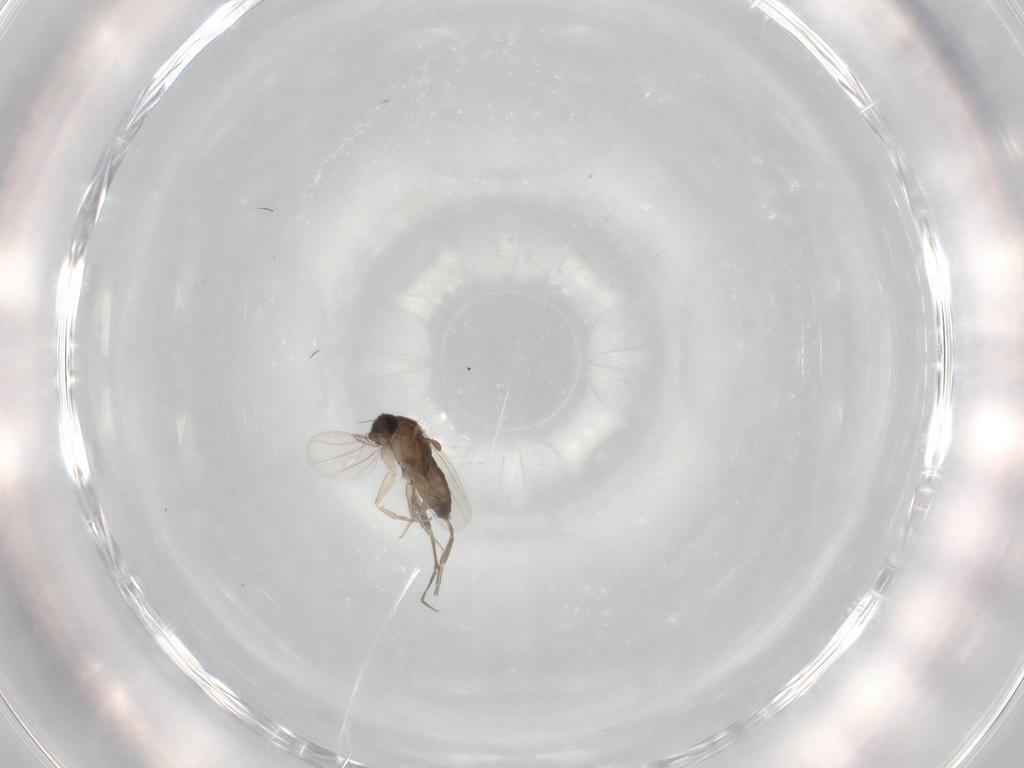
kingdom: Animalia
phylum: Arthropoda
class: Insecta
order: Diptera
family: Phoridae
